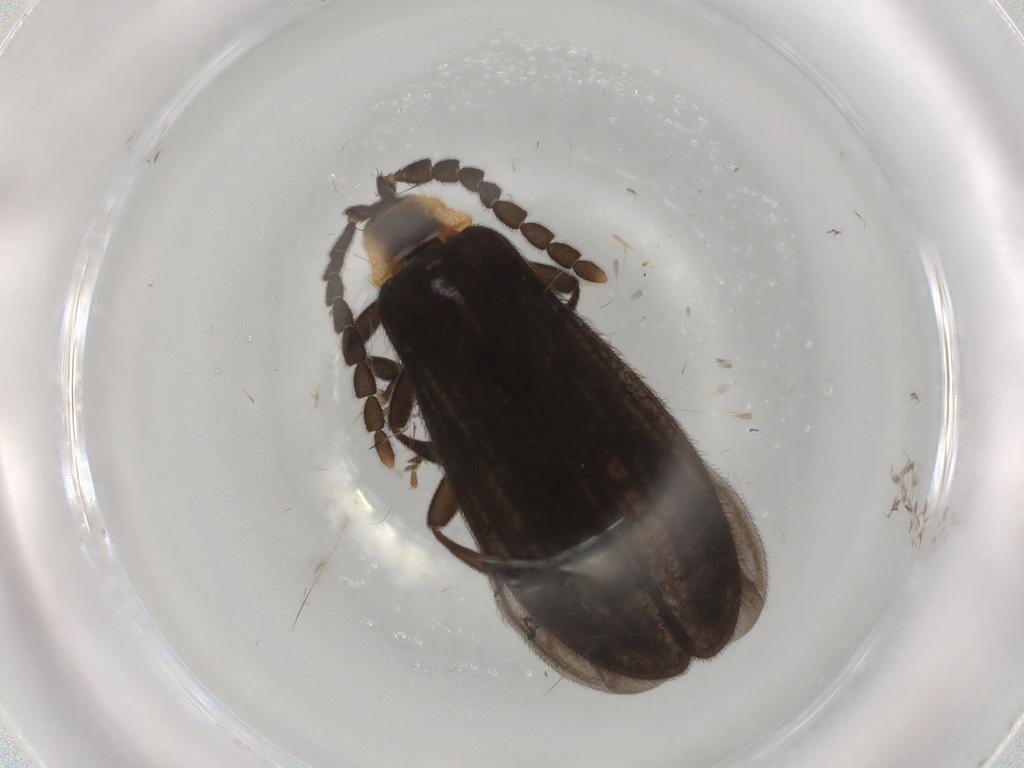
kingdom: Animalia
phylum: Arthropoda
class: Insecta
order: Coleoptera
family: Lycidae
